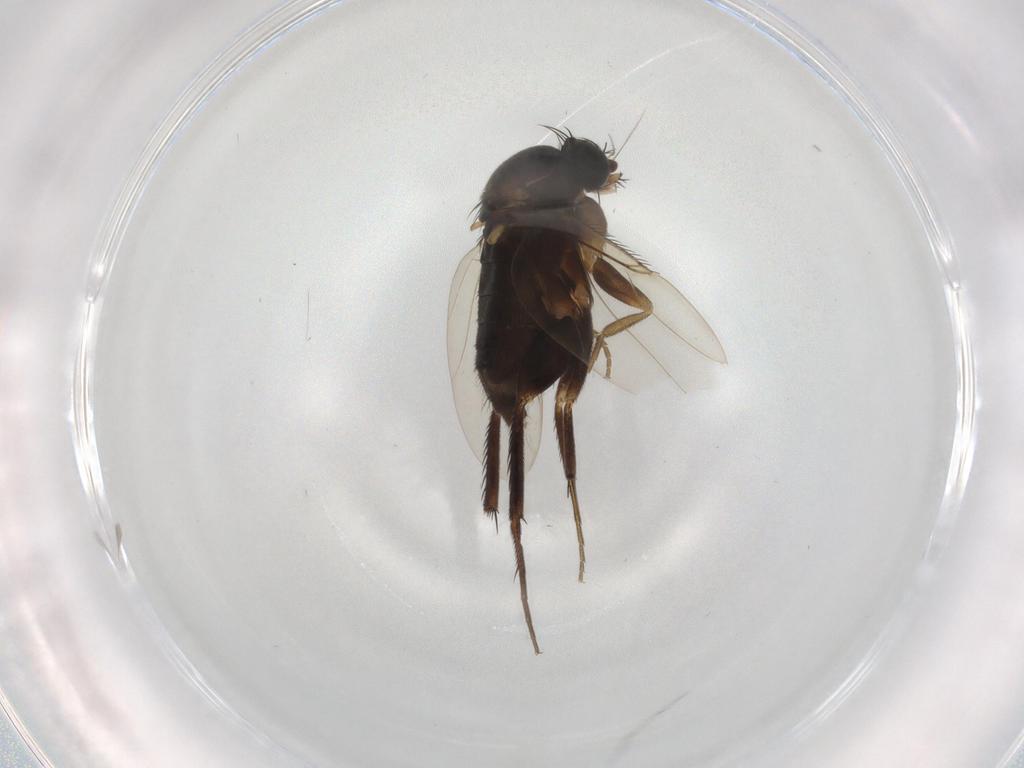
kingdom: Animalia
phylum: Arthropoda
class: Insecta
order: Diptera
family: Phoridae
